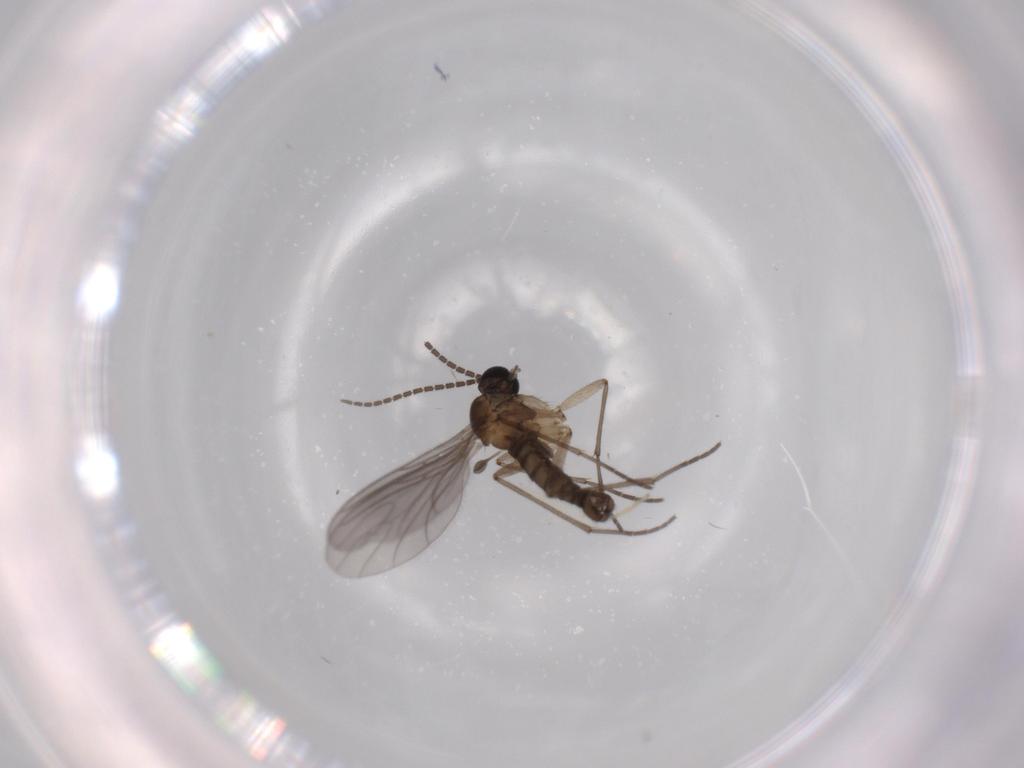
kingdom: Animalia
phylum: Arthropoda
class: Insecta
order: Diptera
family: Sciaridae
